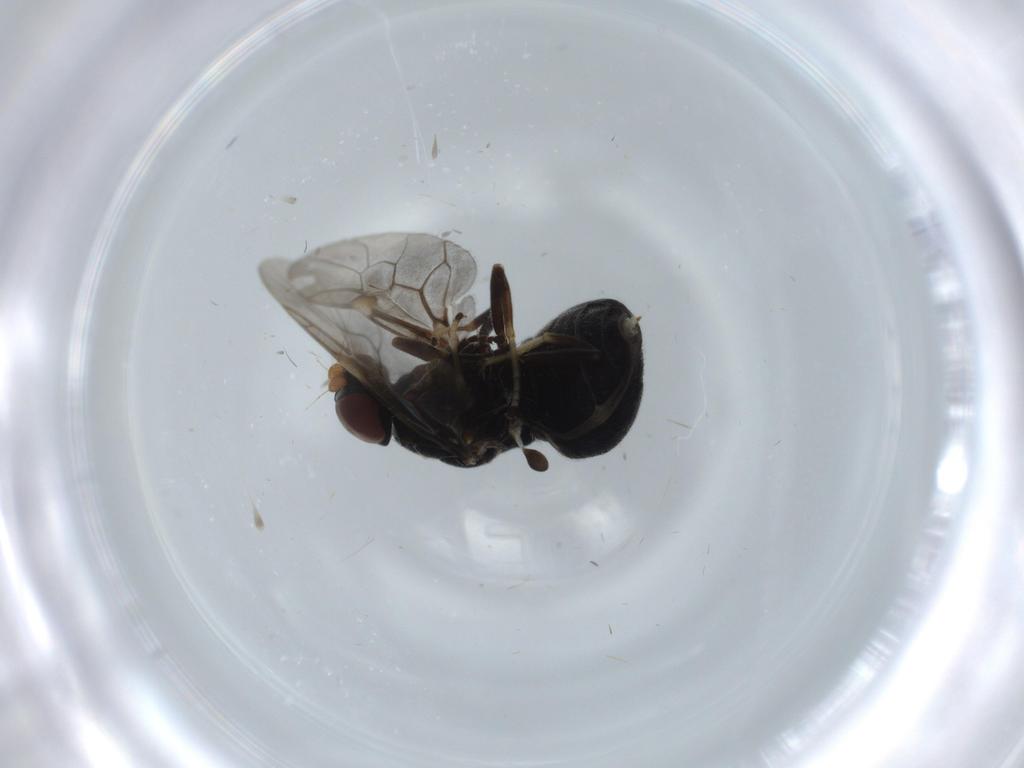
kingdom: Animalia
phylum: Arthropoda
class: Insecta
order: Diptera
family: Stratiomyidae
